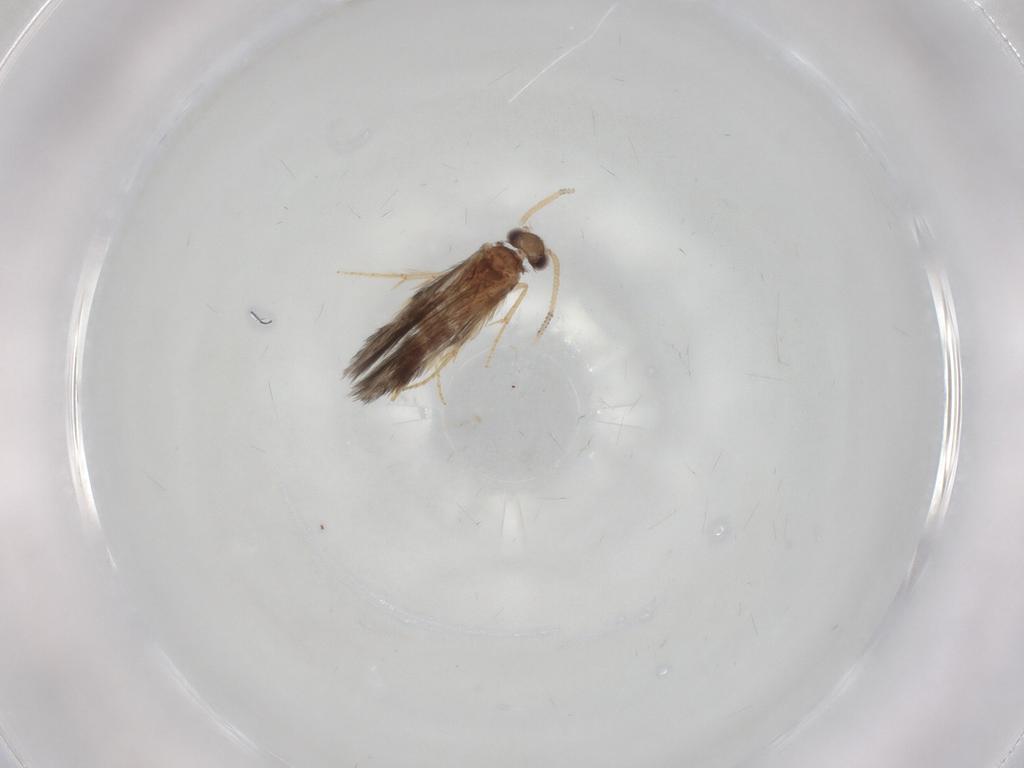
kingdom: Animalia
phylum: Arthropoda
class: Insecta
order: Trichoptera
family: Hydroptilidae
